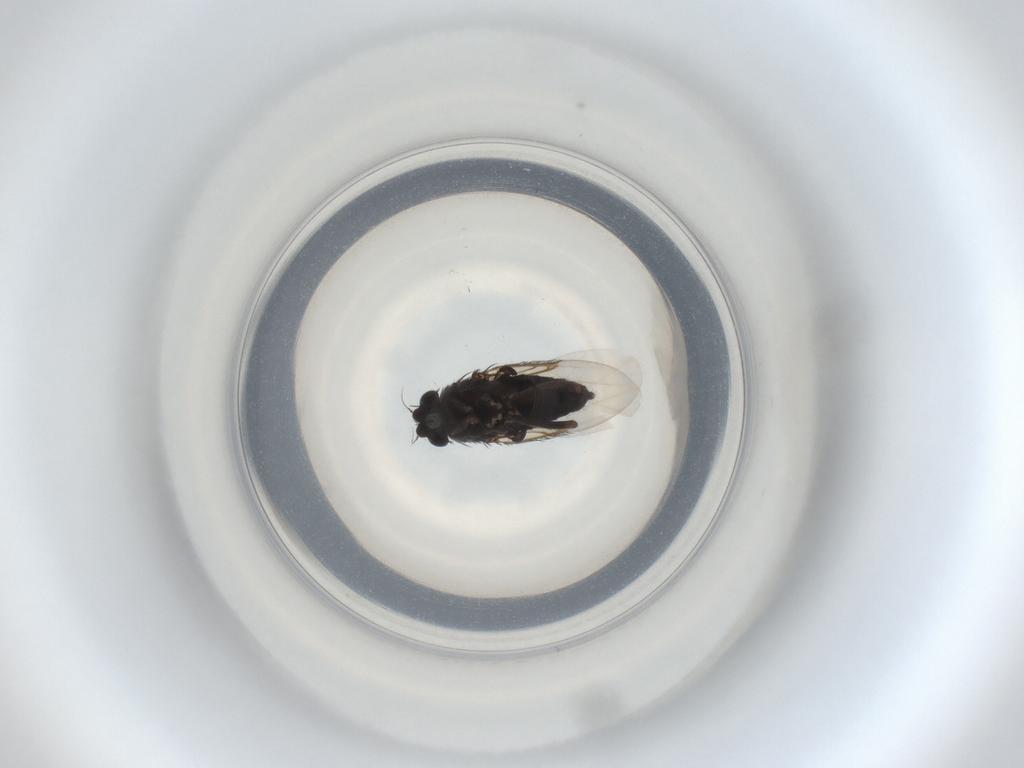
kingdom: Animalia
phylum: Arthropoda
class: Insecta
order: Diptera
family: Phoridae
